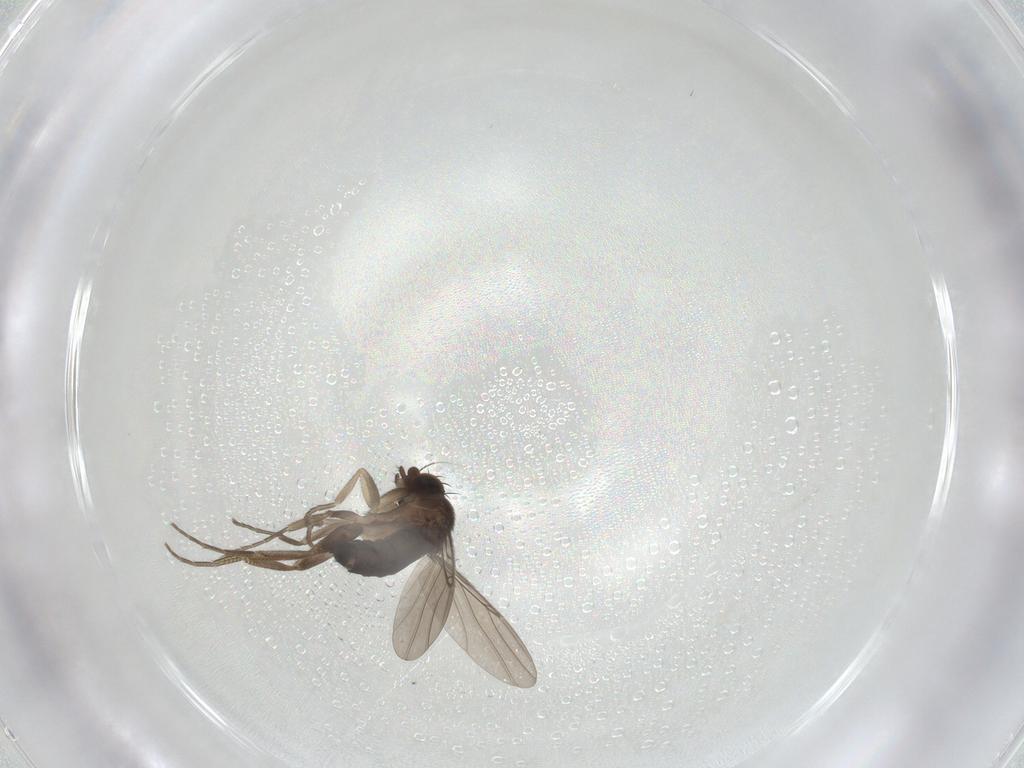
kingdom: Animalia
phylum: Arthropoda
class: Insecta
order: Diptera
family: Phoridae
